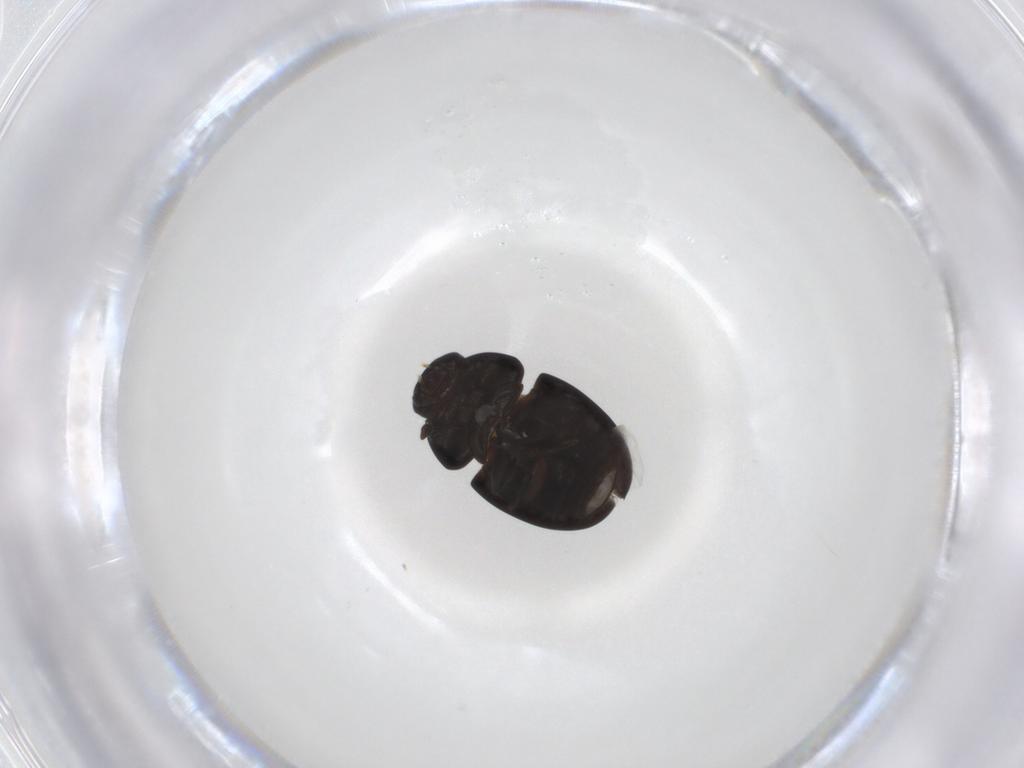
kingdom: Animalia
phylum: Arthropoda
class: Insecta
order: Coleoptera
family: Phalacridae
